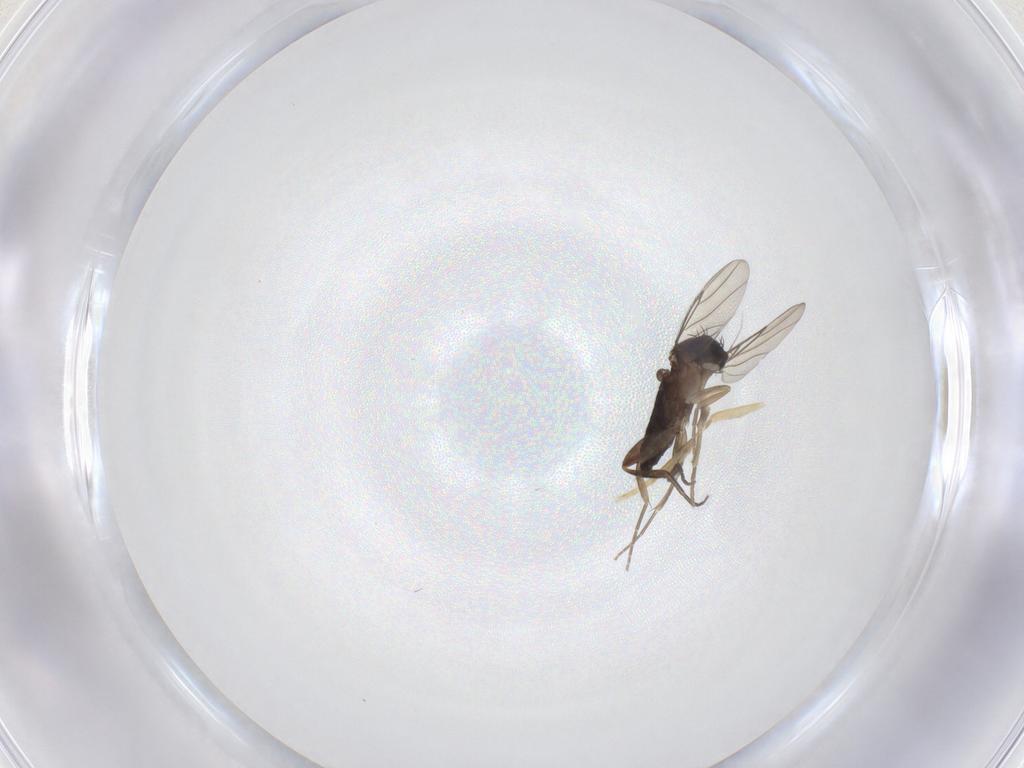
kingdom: Animalia
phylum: Arthropoda
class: Insecta
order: Diptera
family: Phoridae
